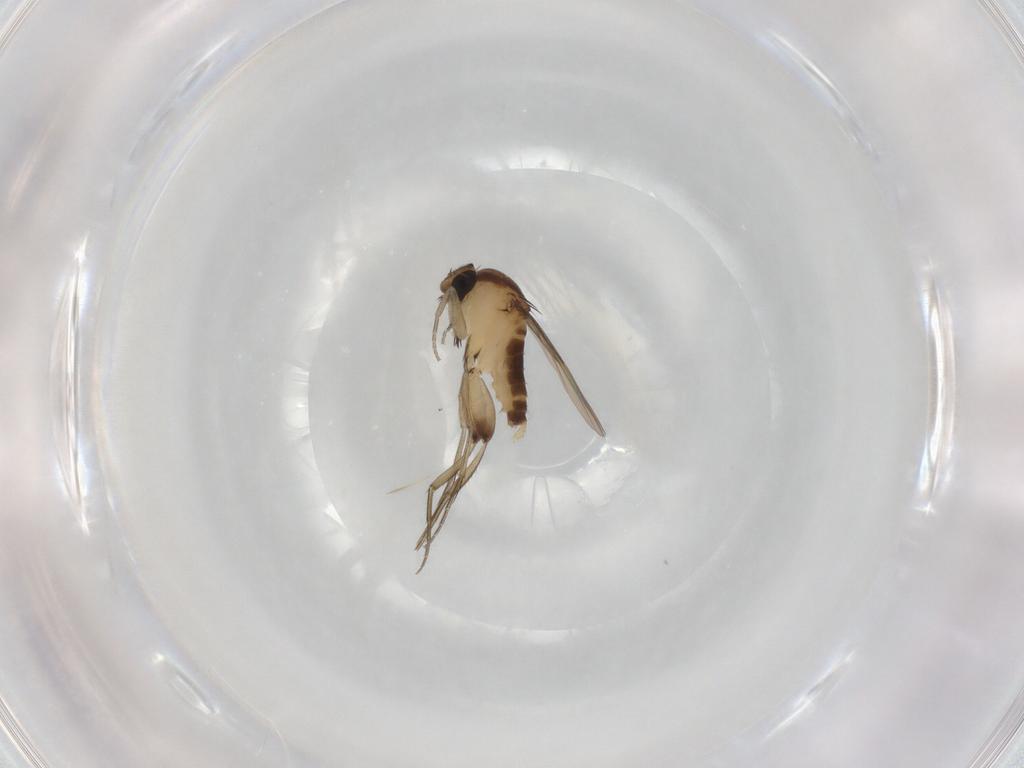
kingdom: Animalia
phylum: Arthropoda
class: Insecta
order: Diptera
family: Phoridae
